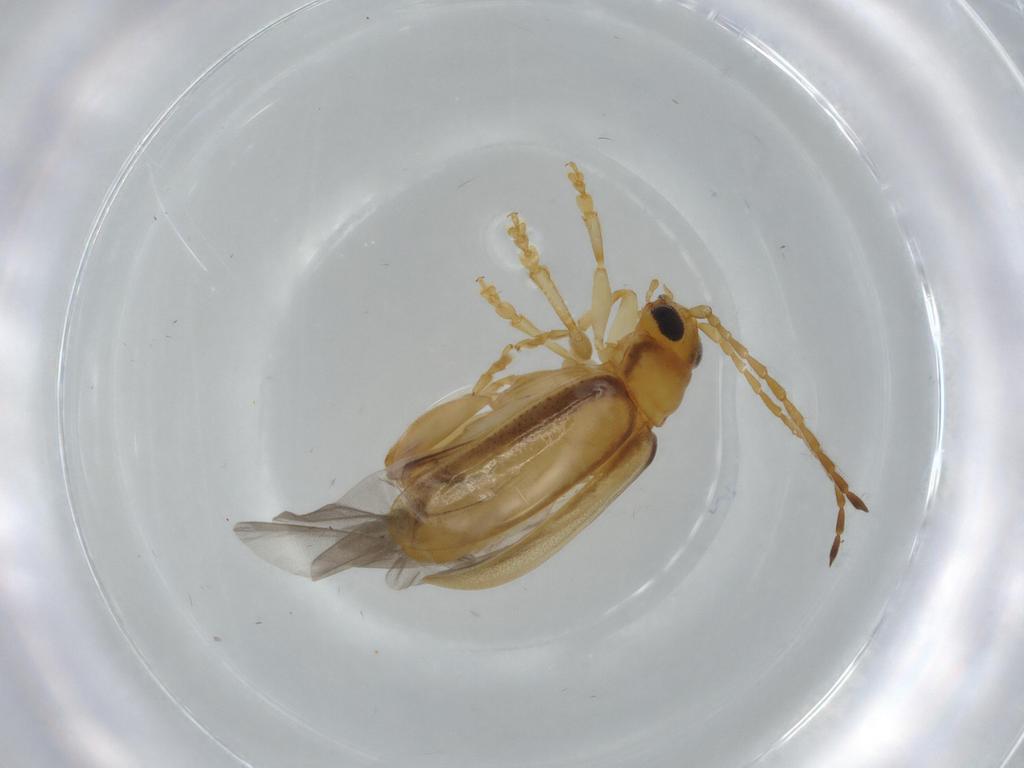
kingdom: Animalia
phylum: Arthropoda
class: Insecta
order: Coleoptera
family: Chrysomelidae
